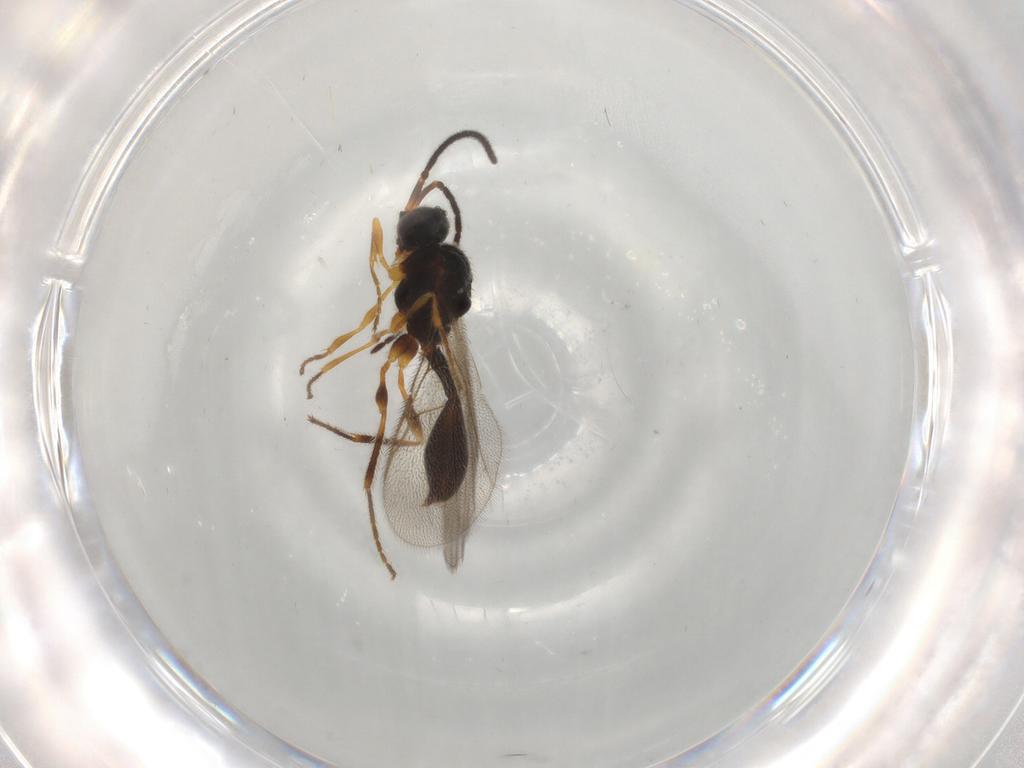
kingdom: Animalia
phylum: Arthropoda
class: Insecta
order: Hymenoptera
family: Diapriidae
